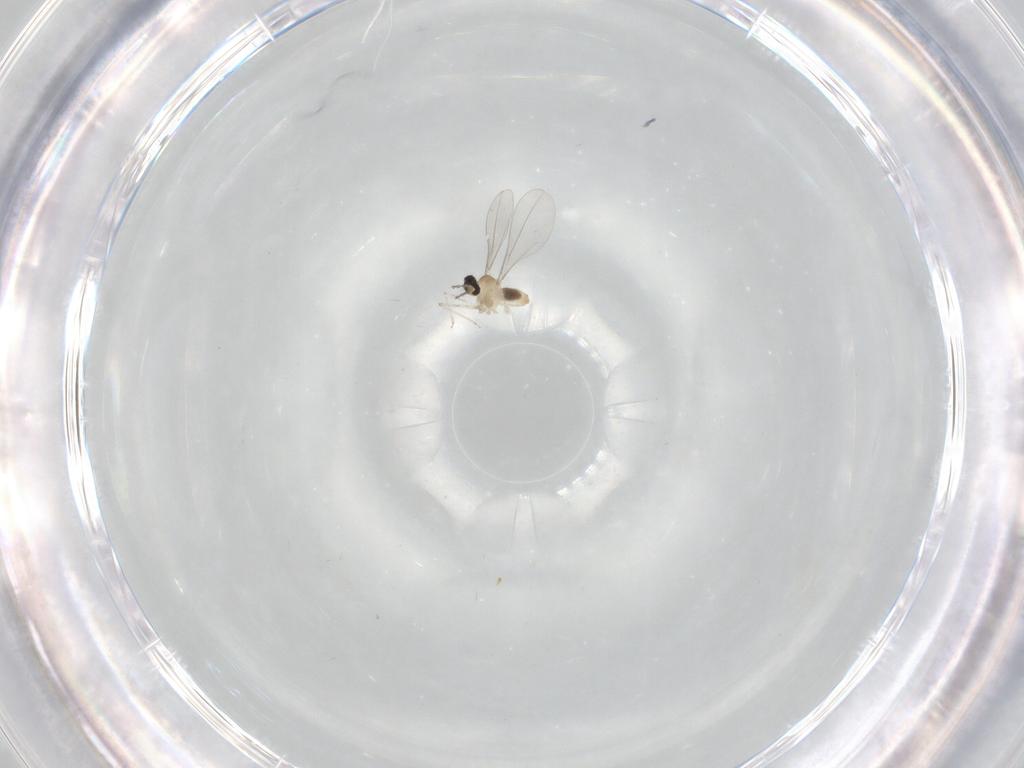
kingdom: Animalia
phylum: Arthropoda
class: Insecta
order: Diptera
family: Cecidomyiidae
